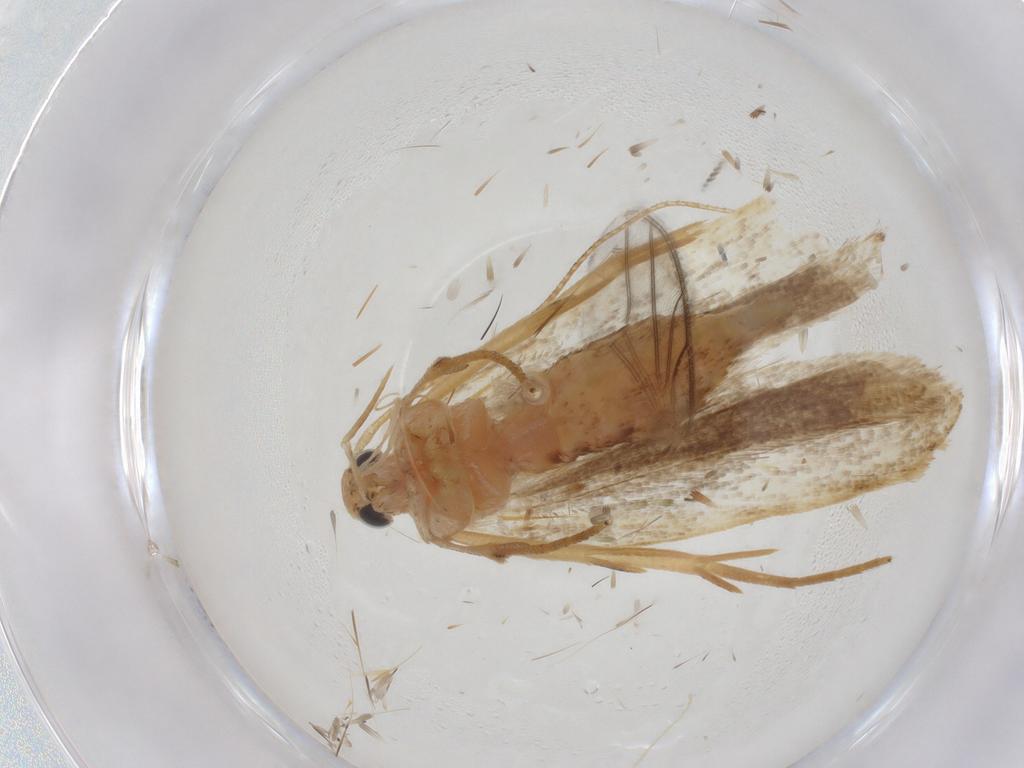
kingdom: Animalia
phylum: Arthropoda
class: Insecta
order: Lepidoptera
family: Gelechiidae
